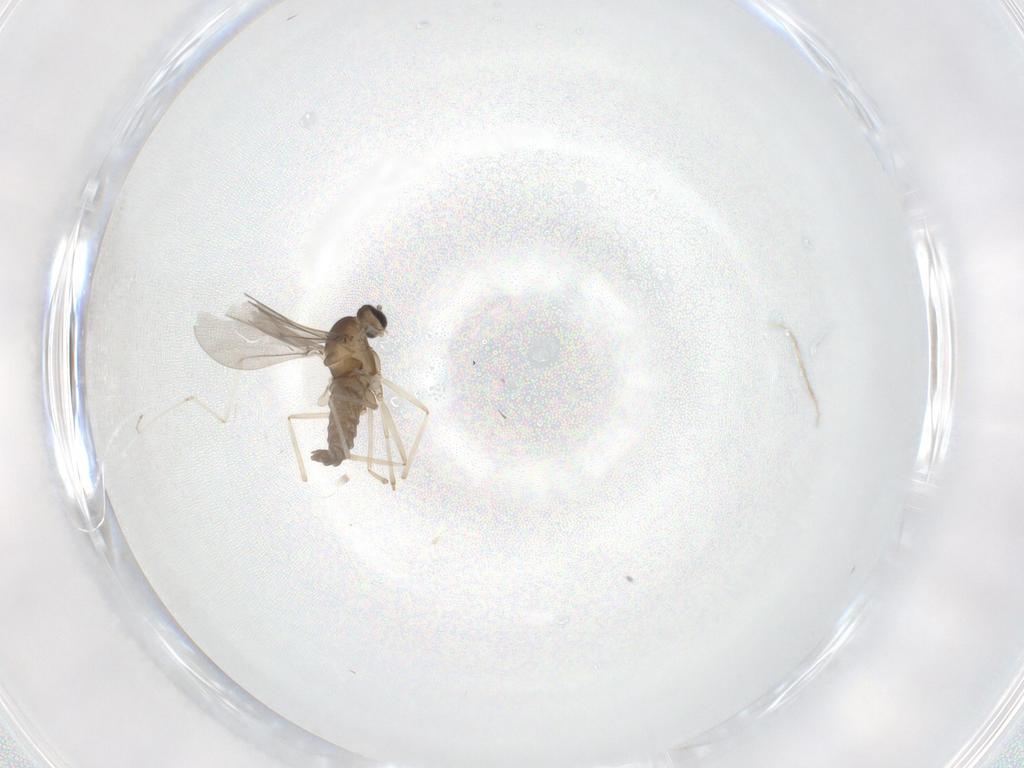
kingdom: Animalia
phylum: Arthropoda
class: Insecta
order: Diptera
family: Cecidomyiidae
